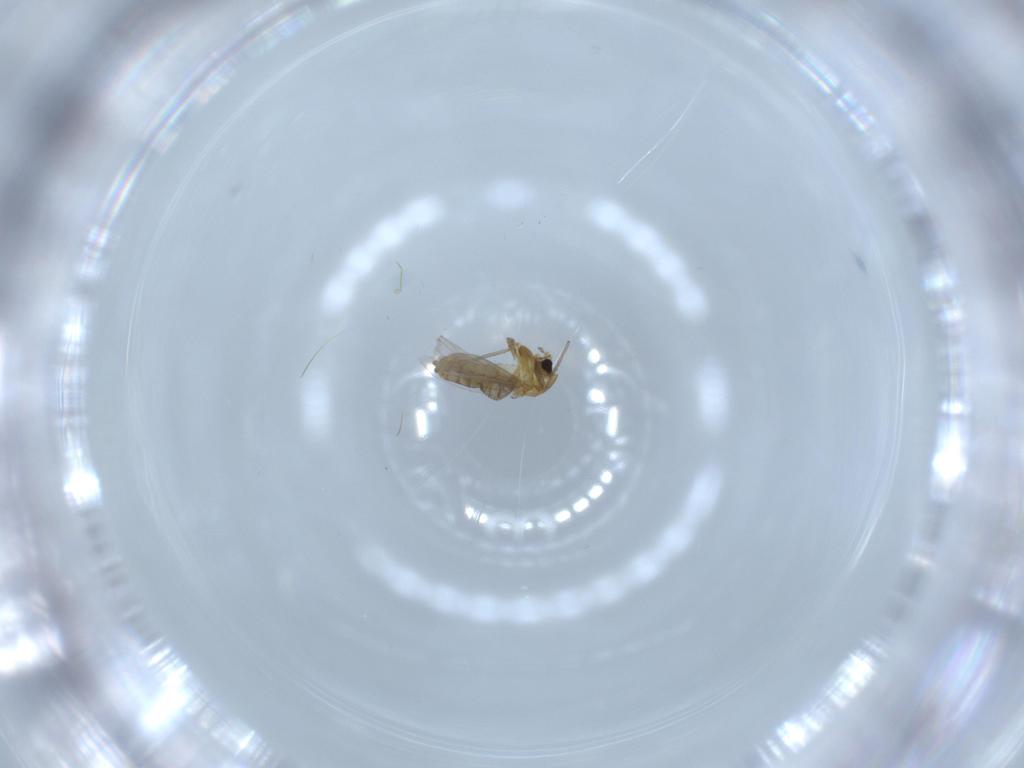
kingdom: Animalia
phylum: Arthropoda
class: Insecta
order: Diptera
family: Chironomidae
